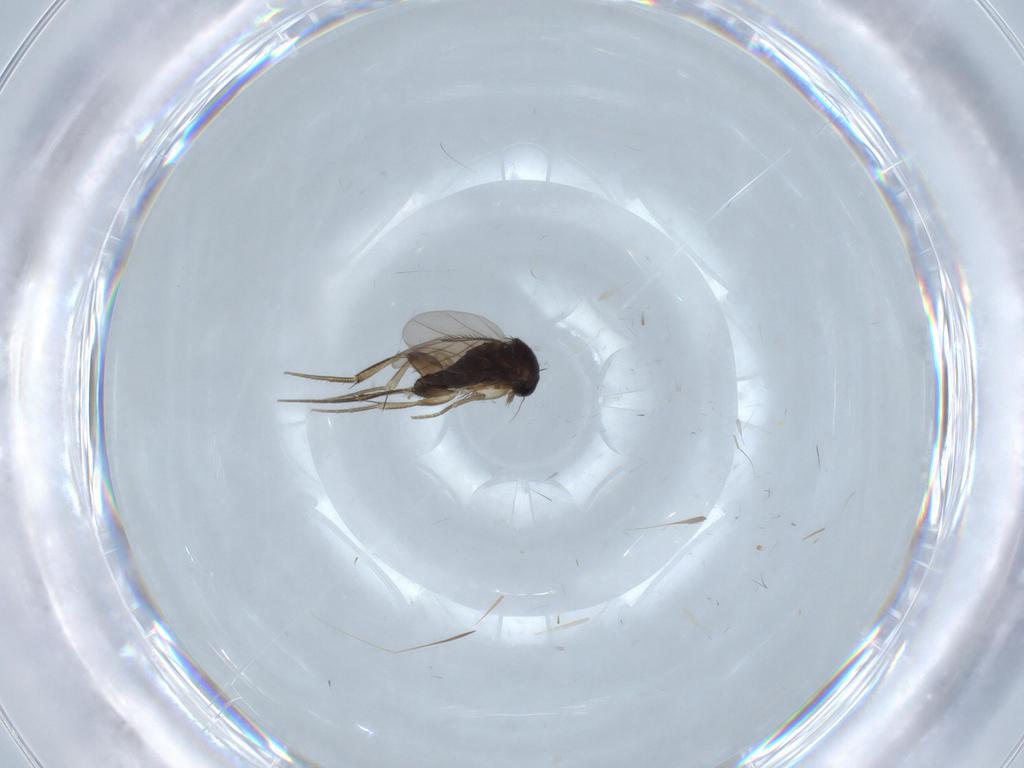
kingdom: Animalia
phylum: Arthropoda
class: Insecta
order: Diptera
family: Phoridae
